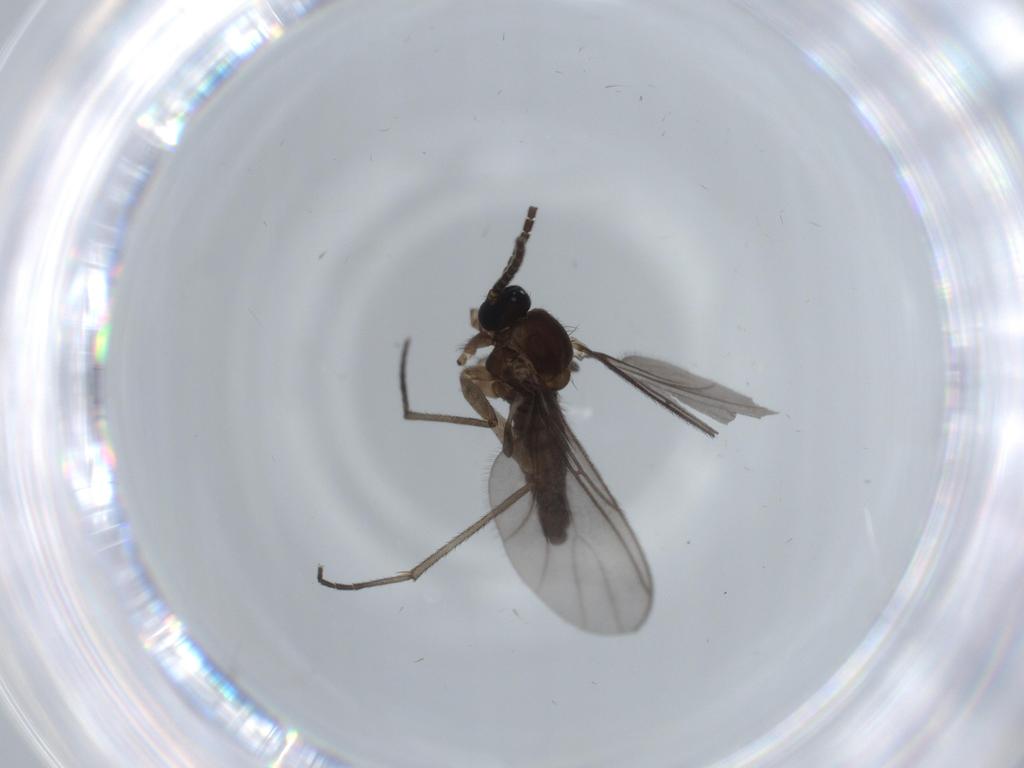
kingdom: Animalia
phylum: Arthropoda
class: Insecta
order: Diptera
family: Sciaridae
